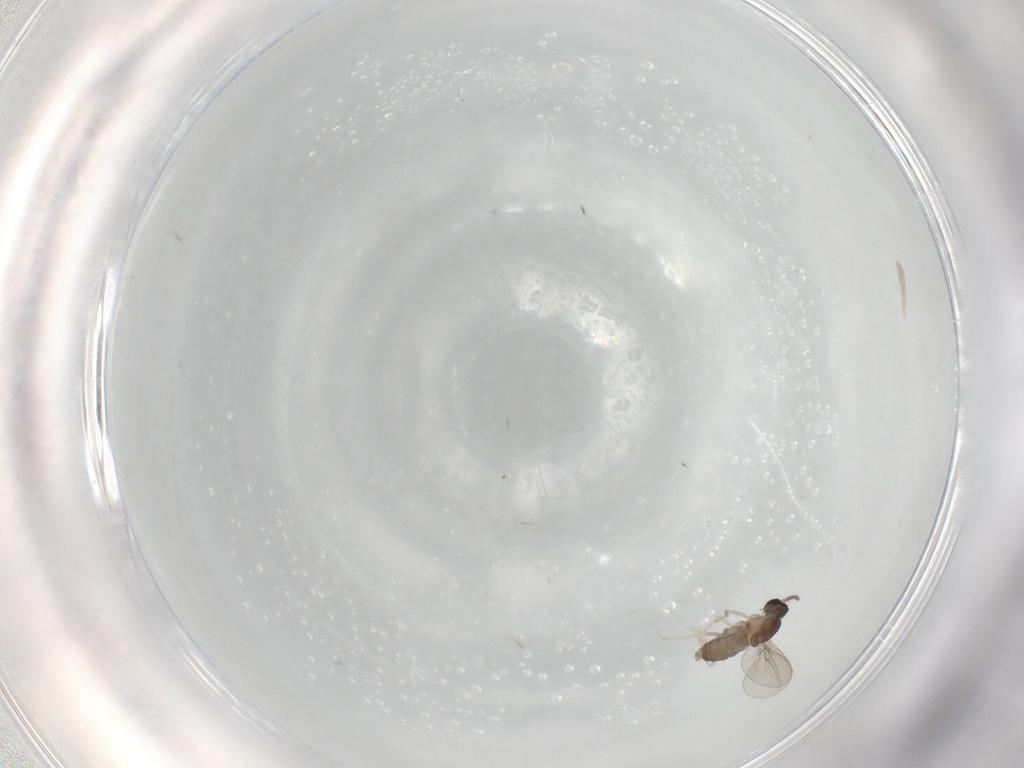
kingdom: Animalia
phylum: Arthropoda
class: Insecta
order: Diptera
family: Cecidomyiidae
